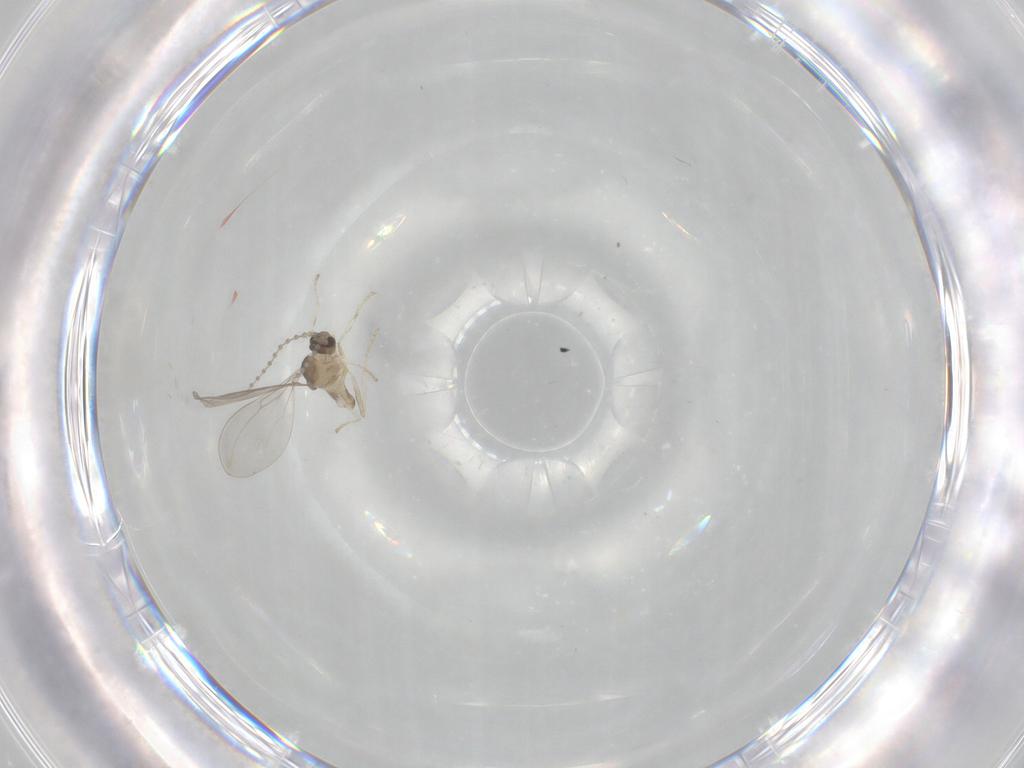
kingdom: Animalia
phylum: Arthropoda
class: Insecta
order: Diptera
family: Cecidomyiidae
